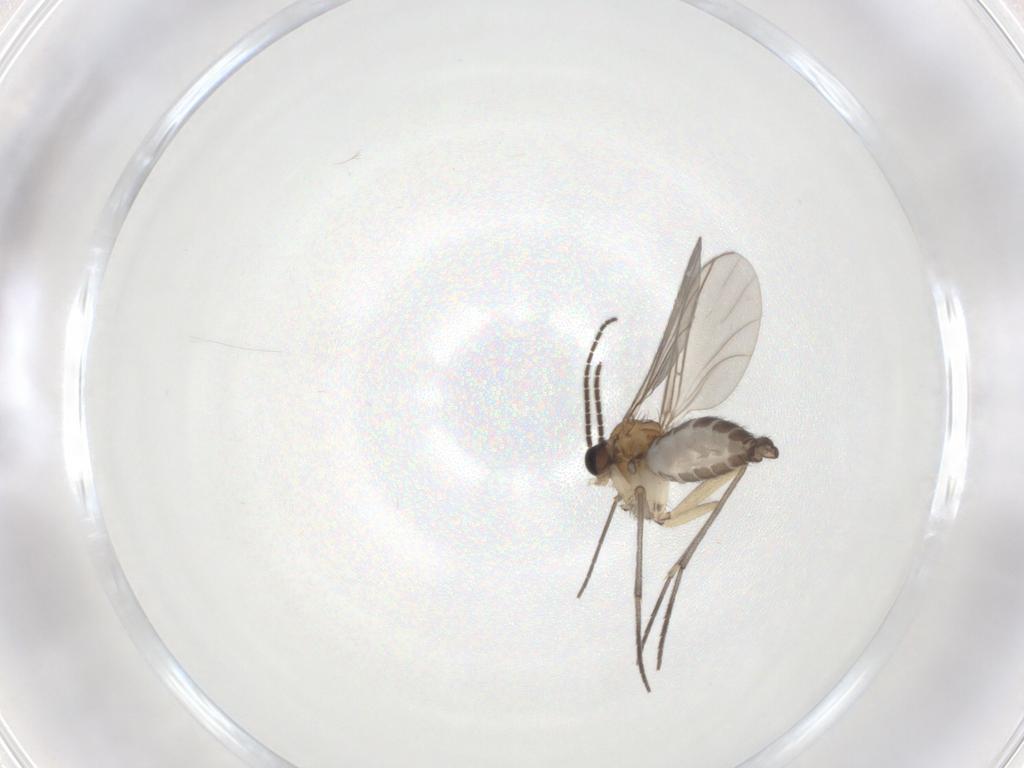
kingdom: Animalia
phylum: Arthropoda
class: Insecta
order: Diptera
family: Sciaridae
